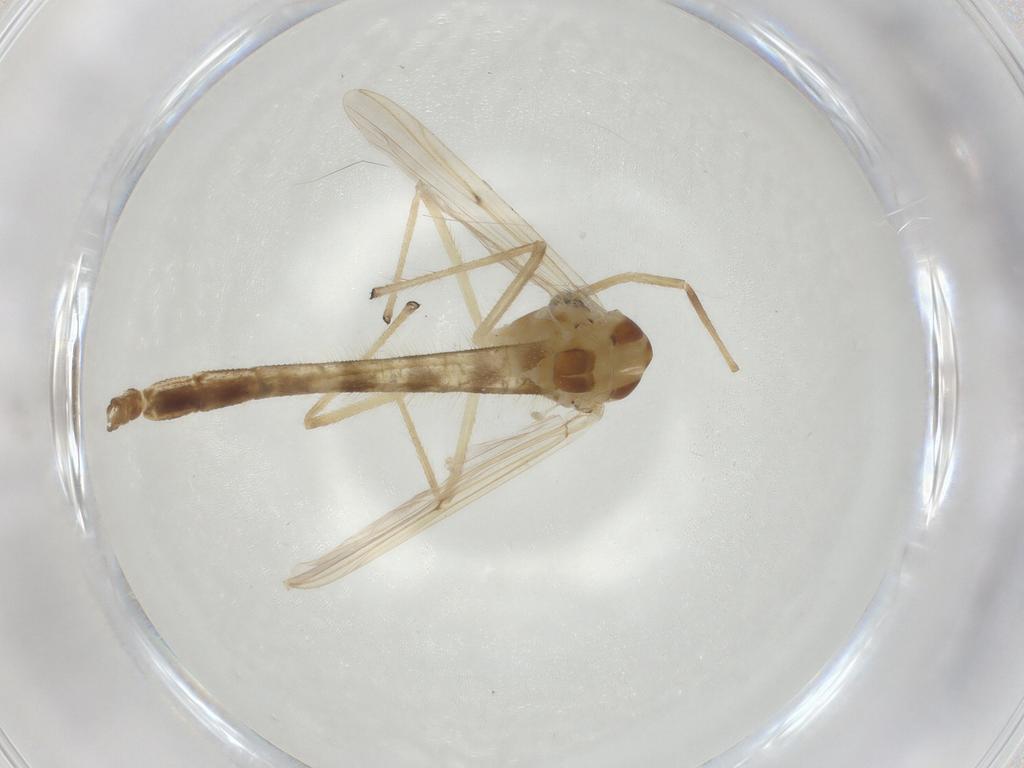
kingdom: Animalia
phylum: Arthropoda
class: Insecta
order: Diptera
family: Chironomidae
